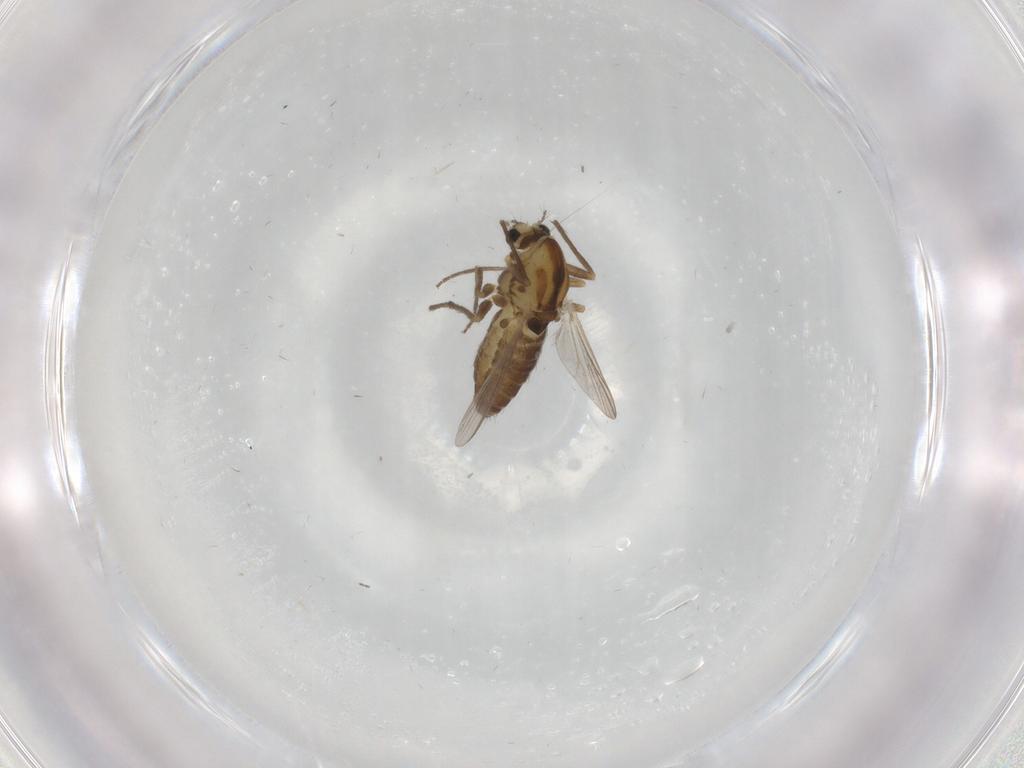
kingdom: Animalia
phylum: Arthropoda
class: Insecta
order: Diptera
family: Chironomidae
